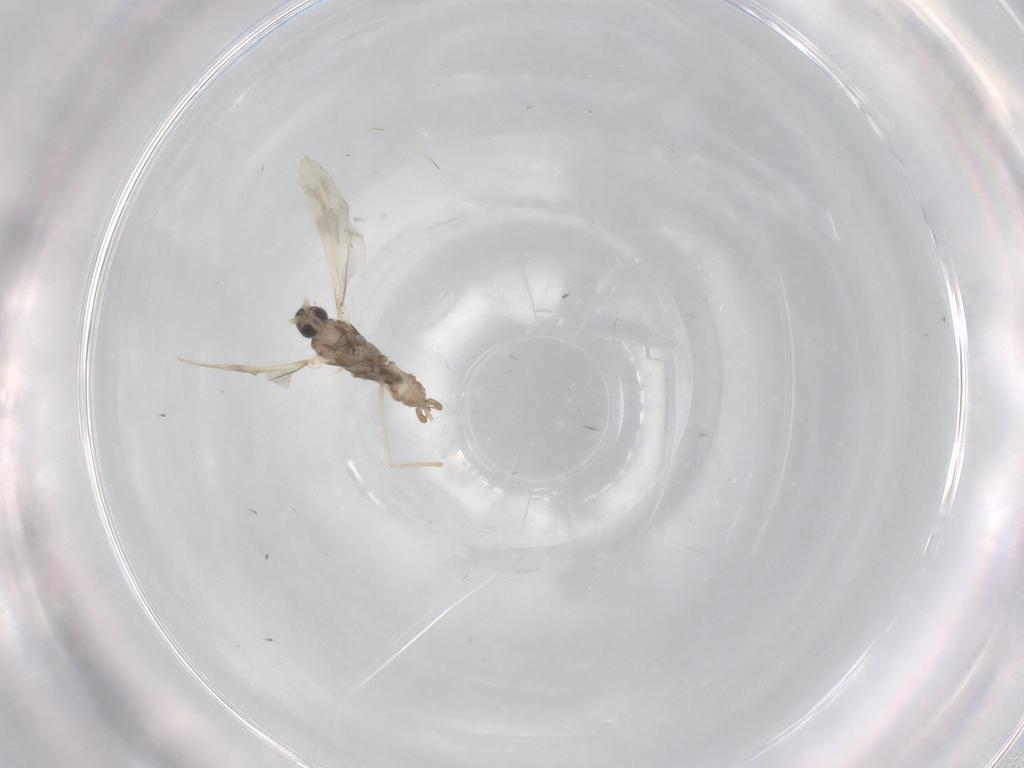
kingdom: Animalia
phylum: Arthropoda
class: Insecta
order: Diptera
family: Cecidomyiidae
